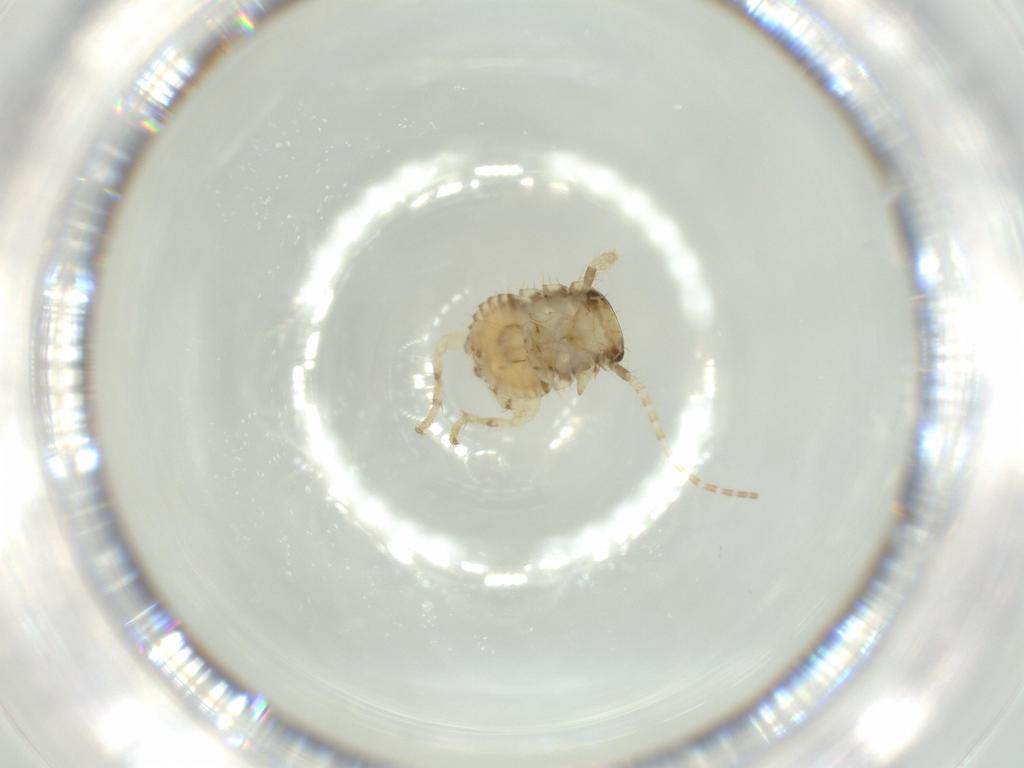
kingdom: Animalia
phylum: Arthropoda
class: Insecta
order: Blattodea
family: Ectobiidae
